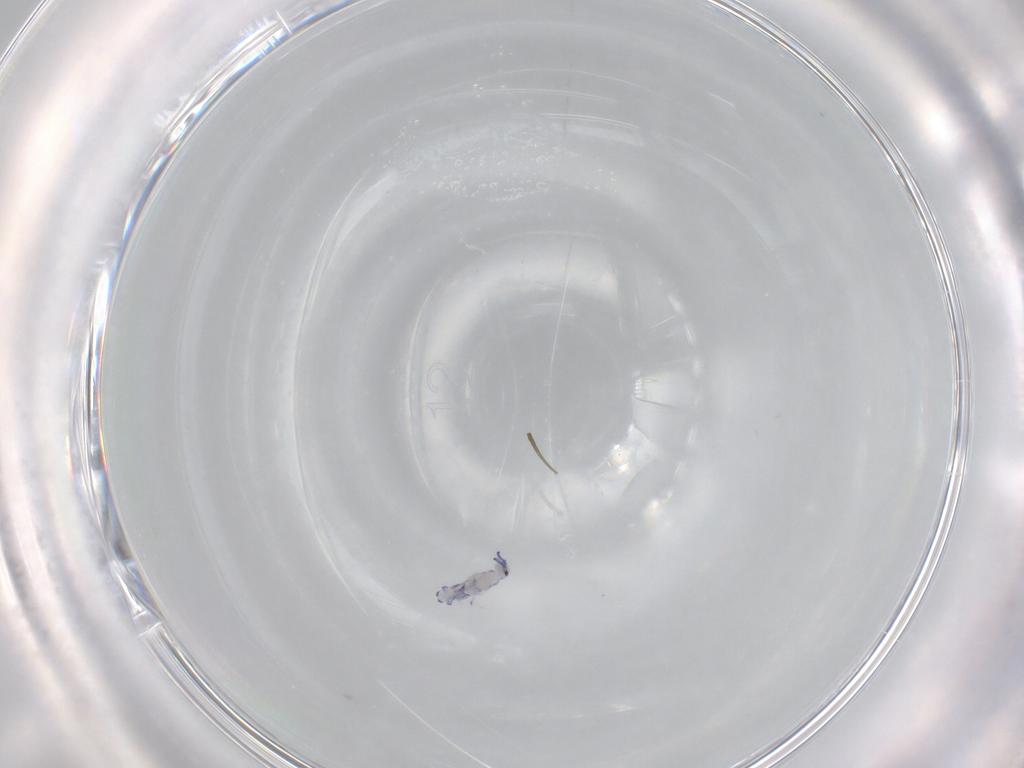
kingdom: Animalia
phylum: Arthropoda
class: Collembola
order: Entomobryomorpha
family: Entomobryidae
